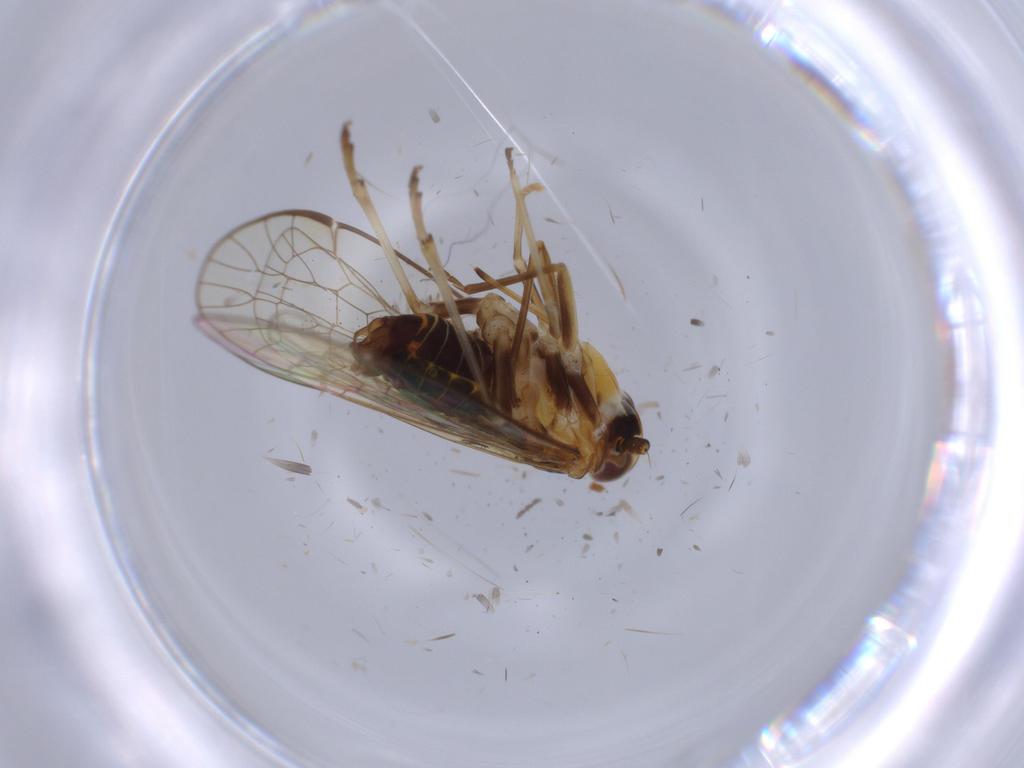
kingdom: Animalia
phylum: Arthropoda
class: Insecta
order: Hemiptera
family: Kinnaridae
